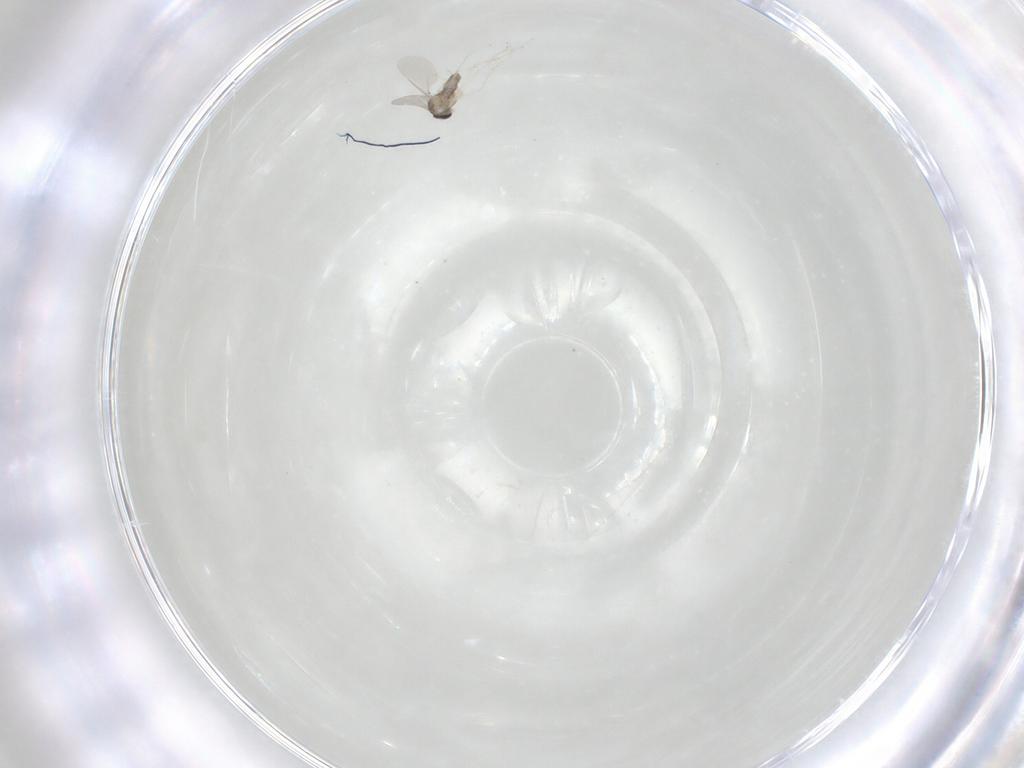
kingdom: Animalia
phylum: Arthropoda
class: Insecta
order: Diptera
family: Cecidomyiidae
